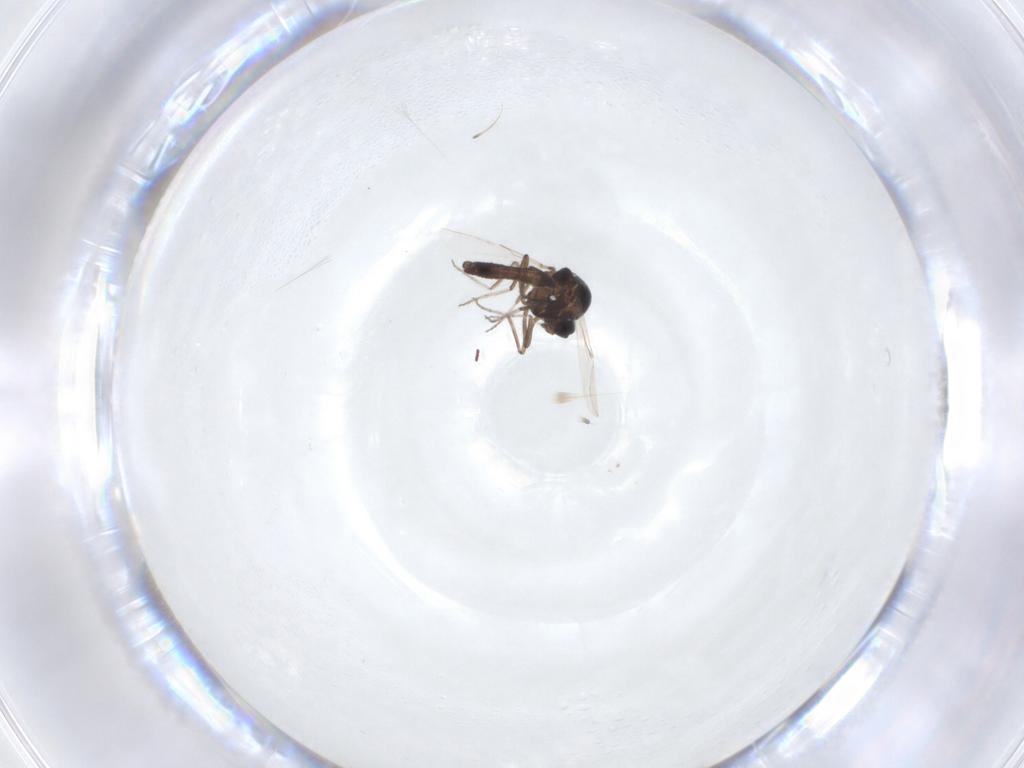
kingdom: Animalia
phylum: Arthropoda
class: Insecta
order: Diptera
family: Ceratopogonidae
